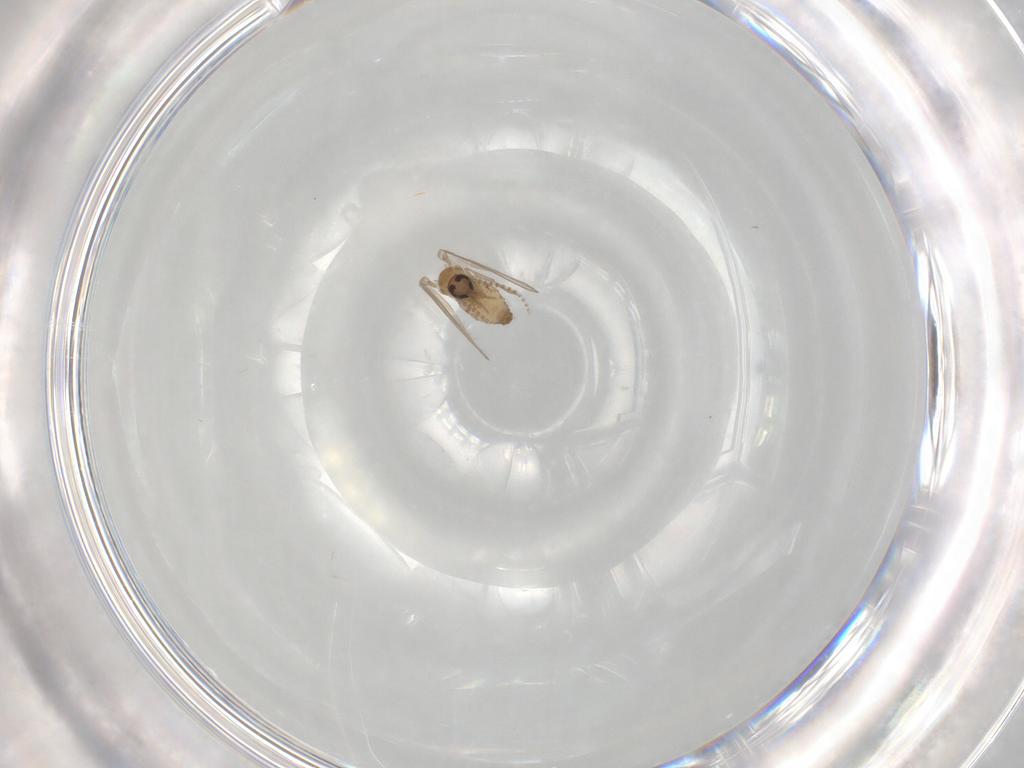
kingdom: Animalia
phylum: Arthropoda
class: Insecta
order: Diptera
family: Psychodidae
